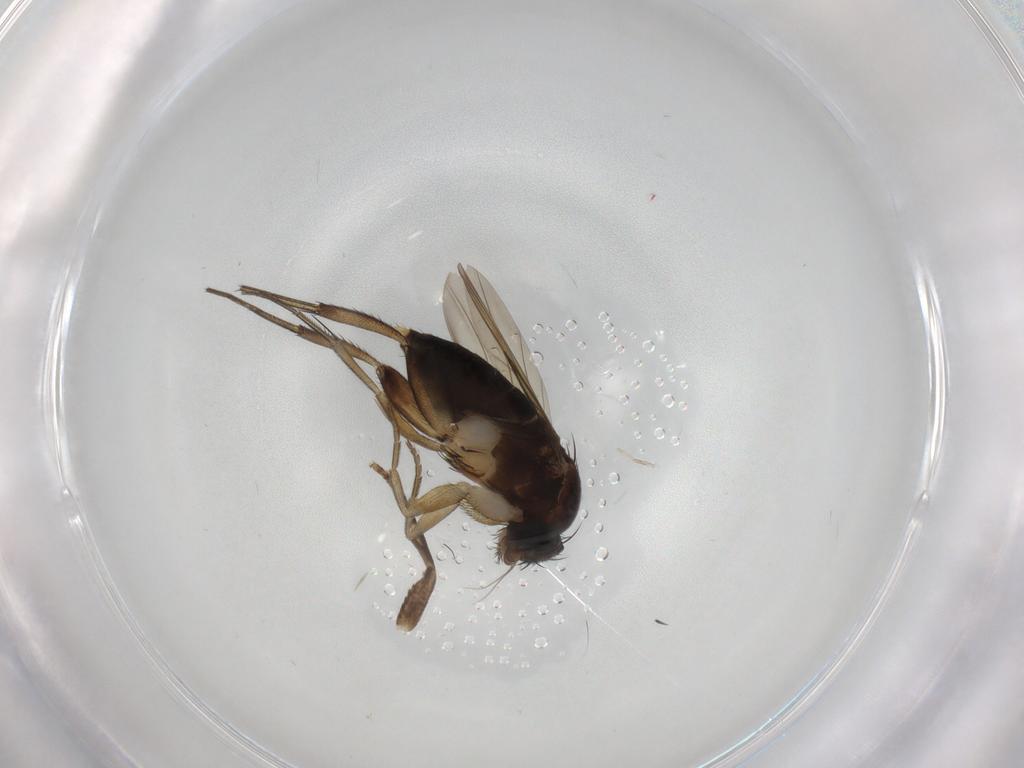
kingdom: Animalia
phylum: Arthropoda
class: Insecta
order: Diptera
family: Phoridae
